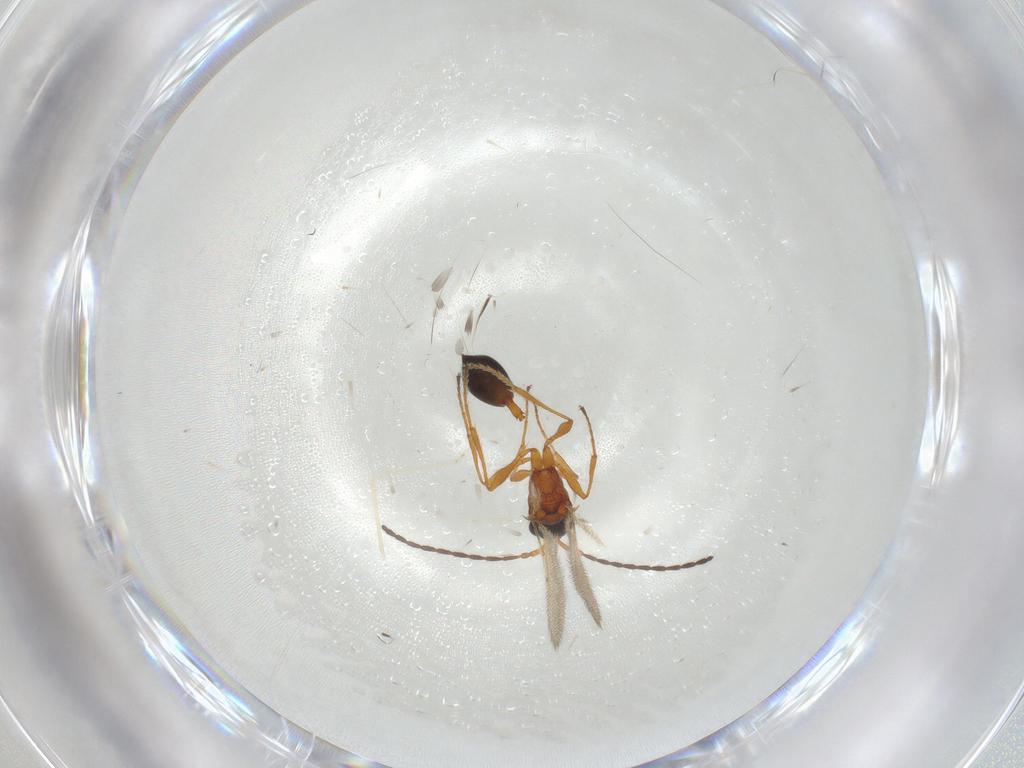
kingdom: Animalia
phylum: Arthropoda
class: Insecta
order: Hymenoptera
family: Diapriidae
